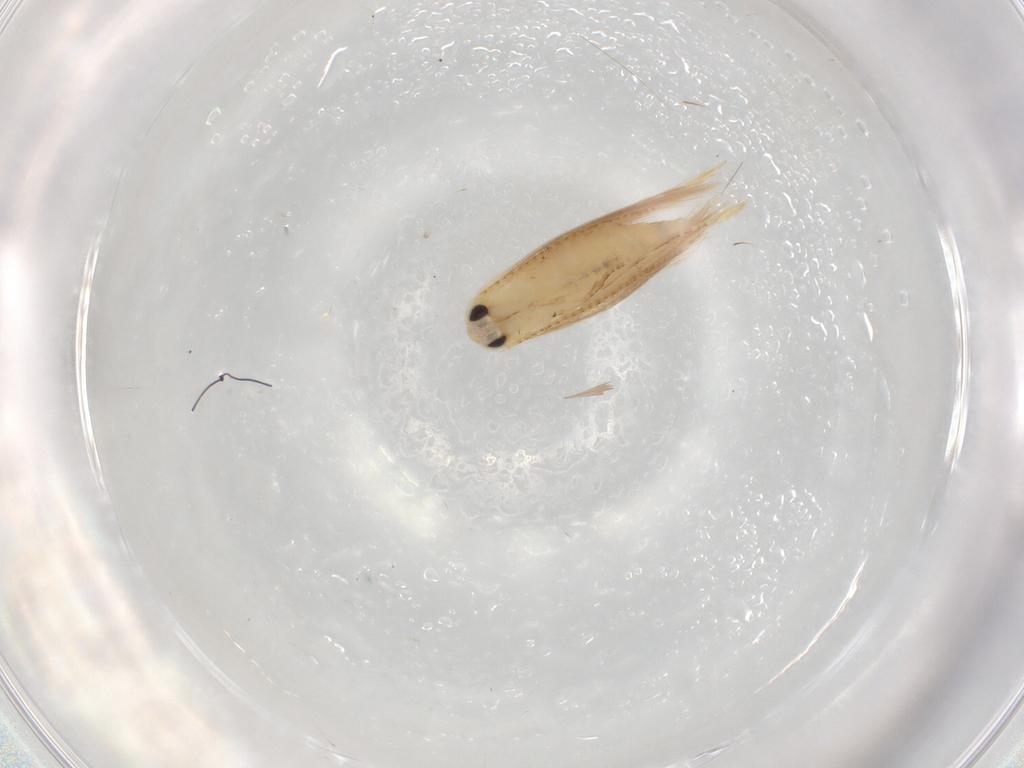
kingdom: Animalia
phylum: Arthropoda
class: Insecta
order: Lepidoptera
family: Bucculatricidae
